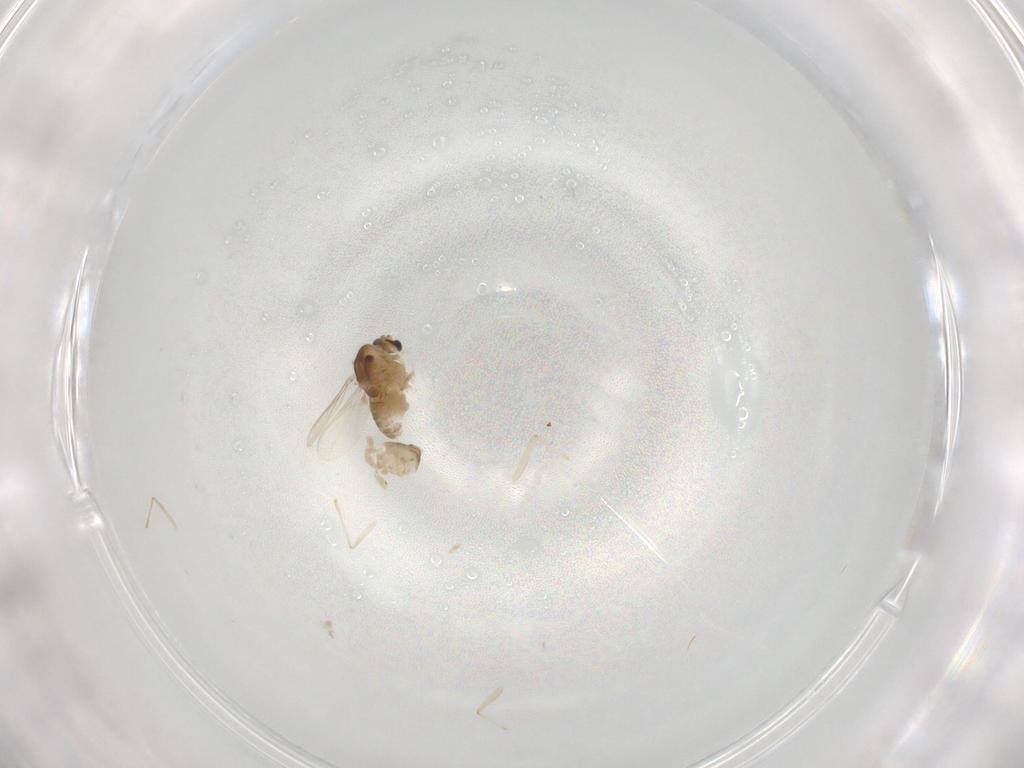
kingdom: Animalia
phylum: Arthropoda
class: Insecta
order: Diptera
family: Chironomidae
